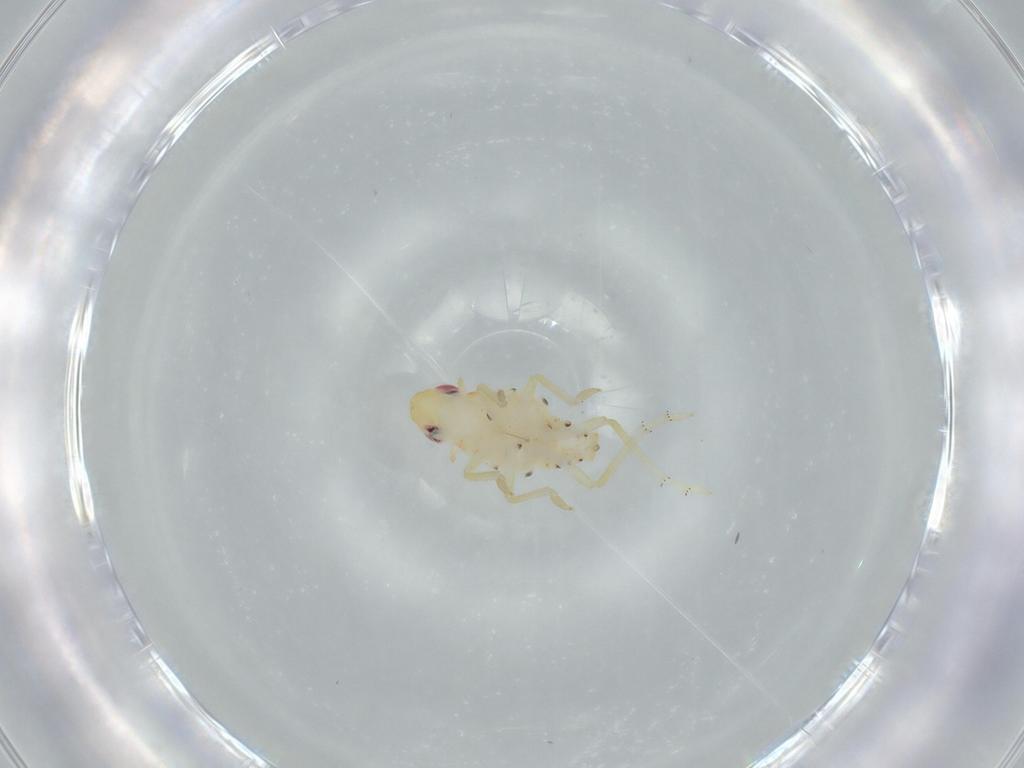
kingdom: Animalia
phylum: Arthropoda
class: Insecta
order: Hemiptera
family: Tropiduchidae
